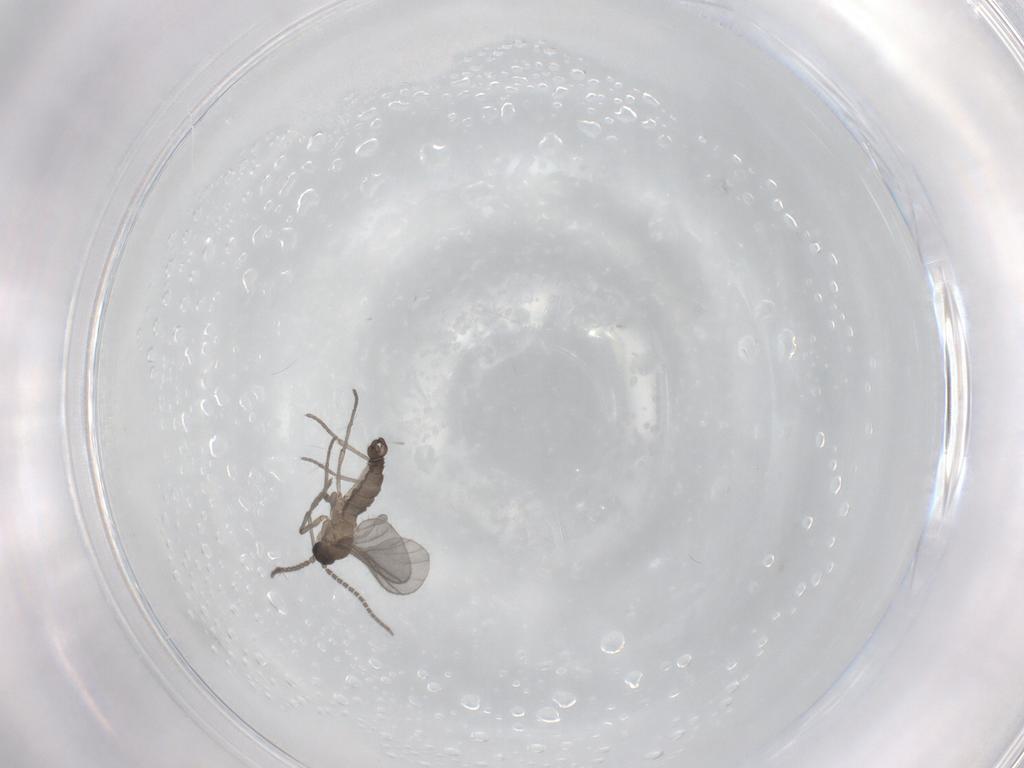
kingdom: Animalia
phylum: Arthropoda
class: Insecta
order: Diptera
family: Sciaridae
